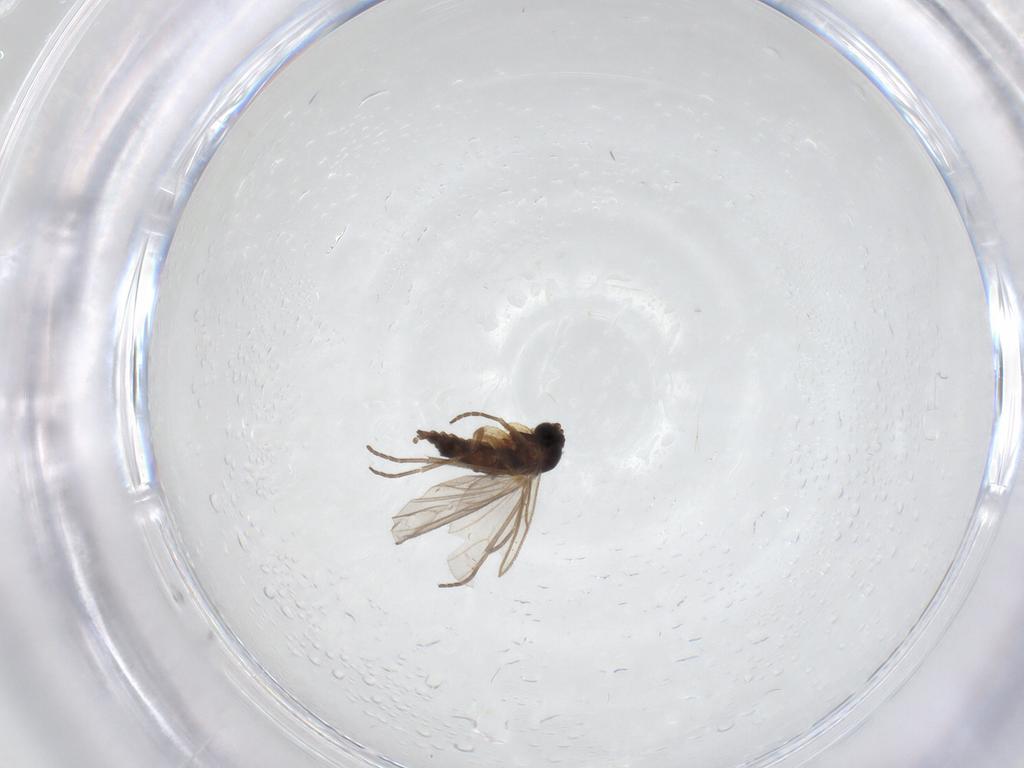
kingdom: Animalia
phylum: Arthropoda
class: Insecta
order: Diptera
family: Sciaridae
